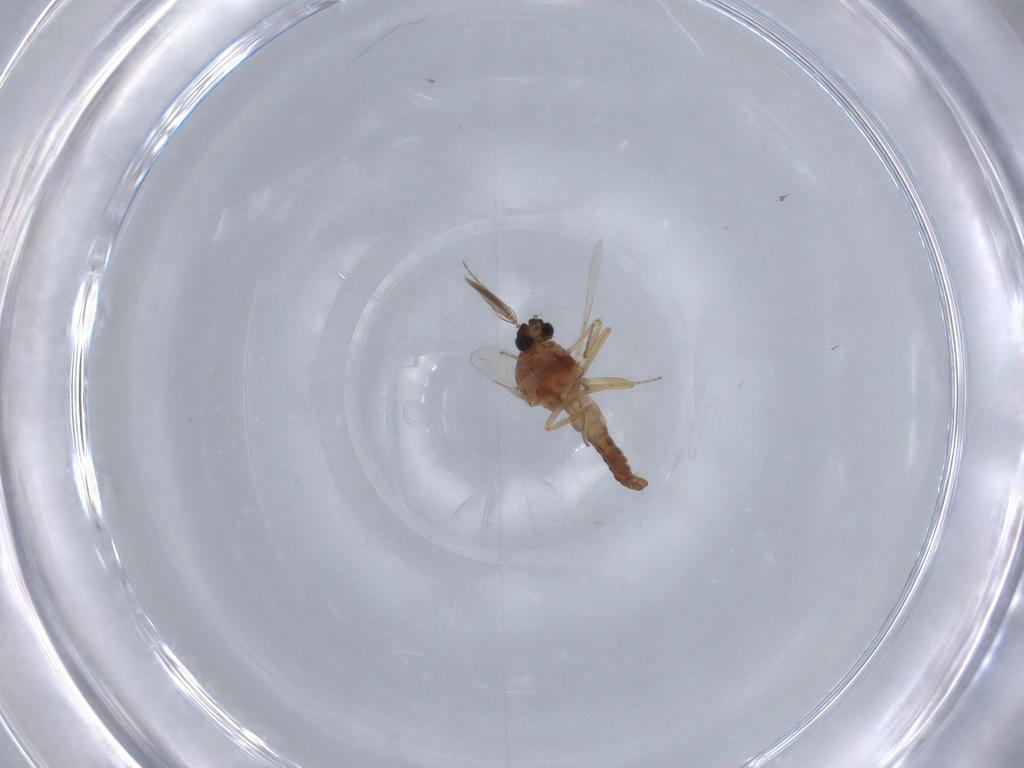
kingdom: Animalia
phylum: Arthropoda
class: Insecta
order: Diptera
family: Ceratopogonidae
